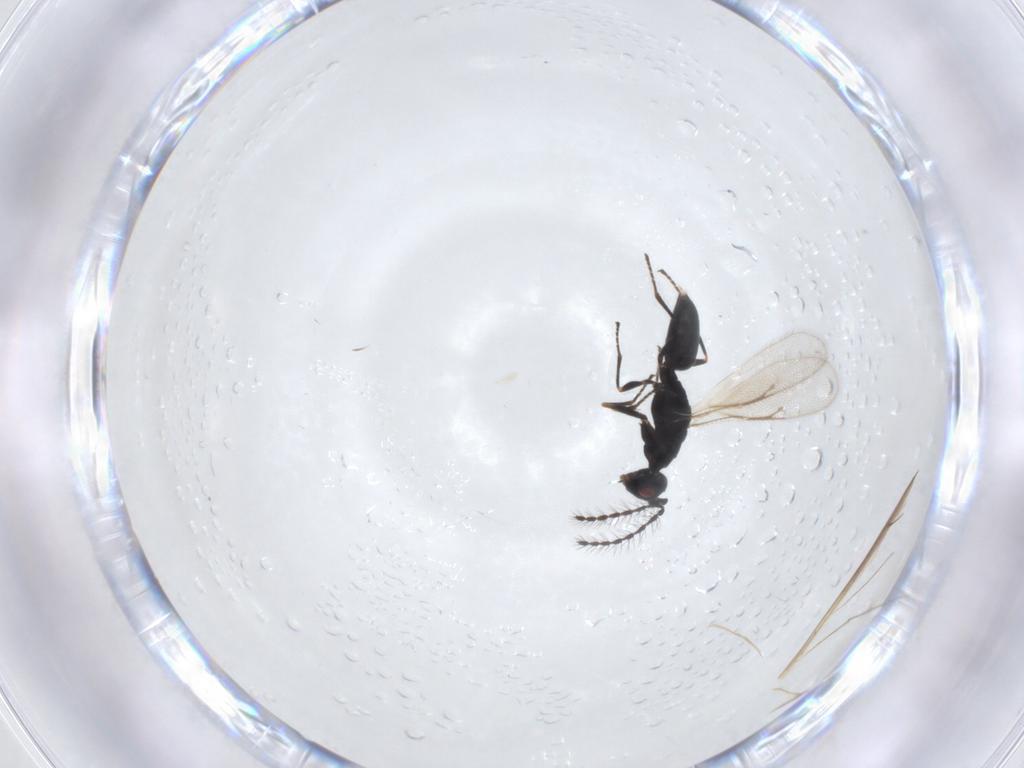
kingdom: Animalia
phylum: Arthropoda
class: Insecta
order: Hymenoptera
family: Eurytomidae
